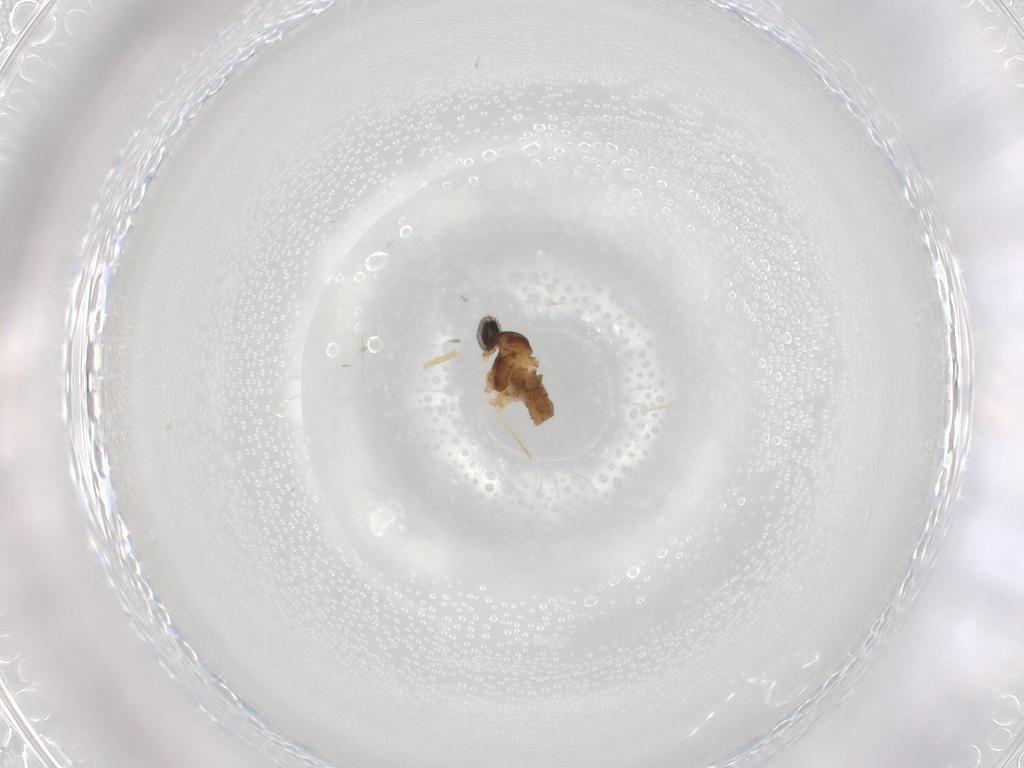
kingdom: Animalia
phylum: Arthropoda
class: Insecta
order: Diptera
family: Cecidomyiidae
